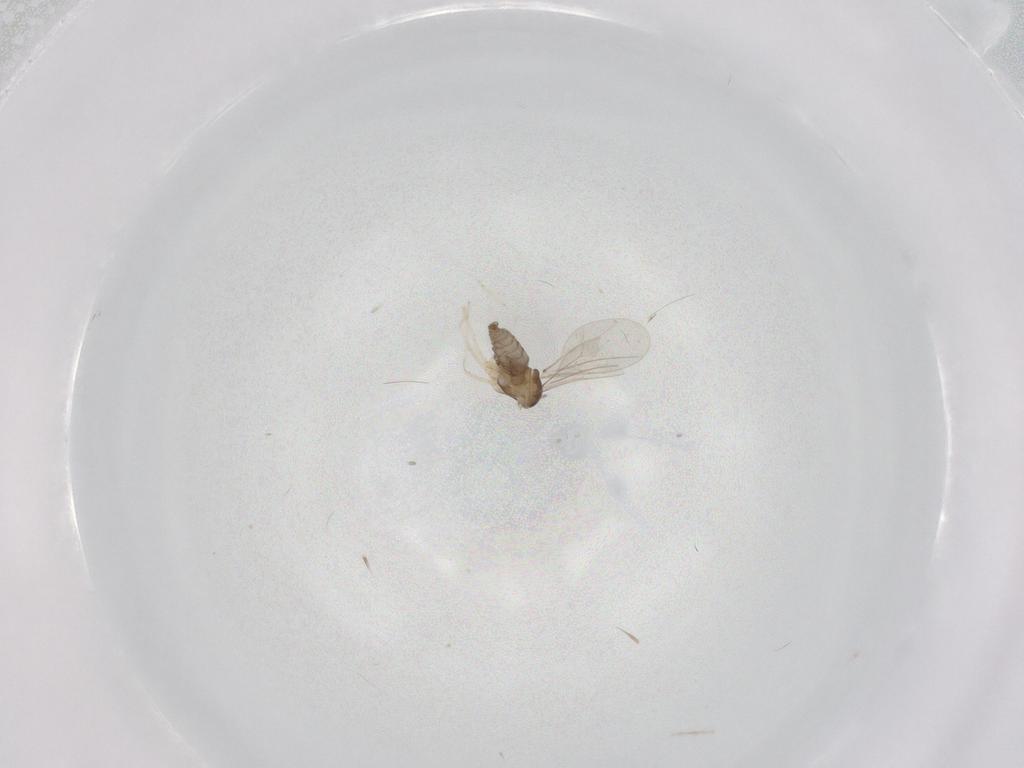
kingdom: Animalia
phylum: Arthropoda
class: Insecta
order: Diptera
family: Cecidomyiidae
